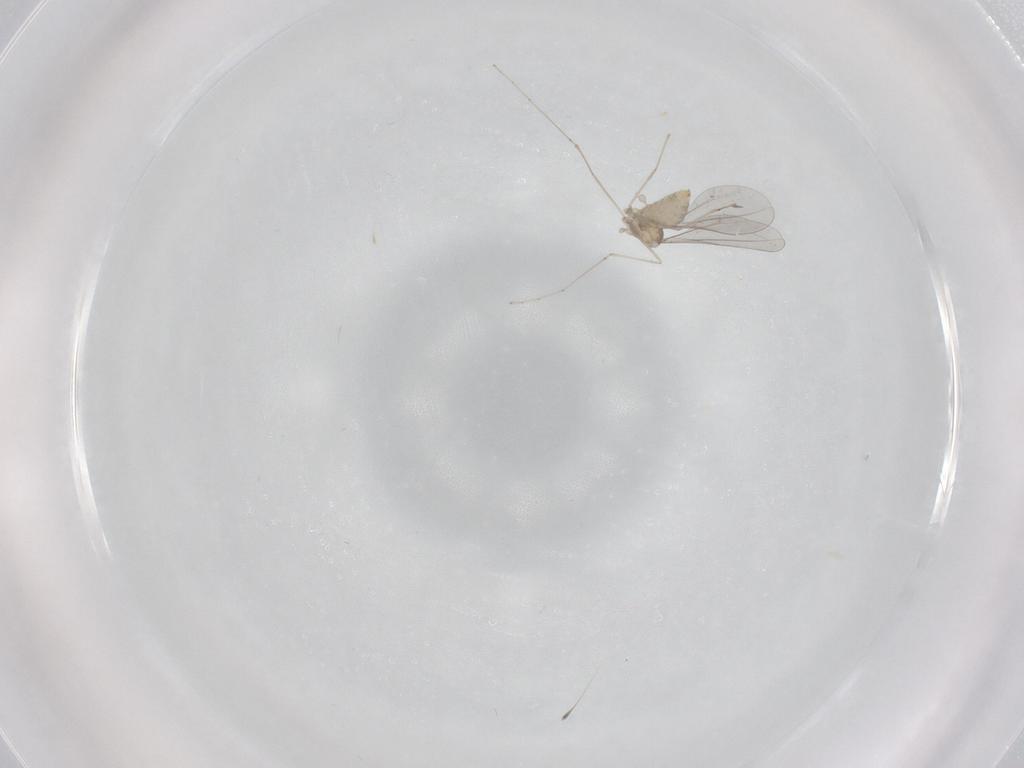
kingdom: Animalia
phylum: Arthropoda
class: Insecta
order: Diptera
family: Cecidomyiidae
